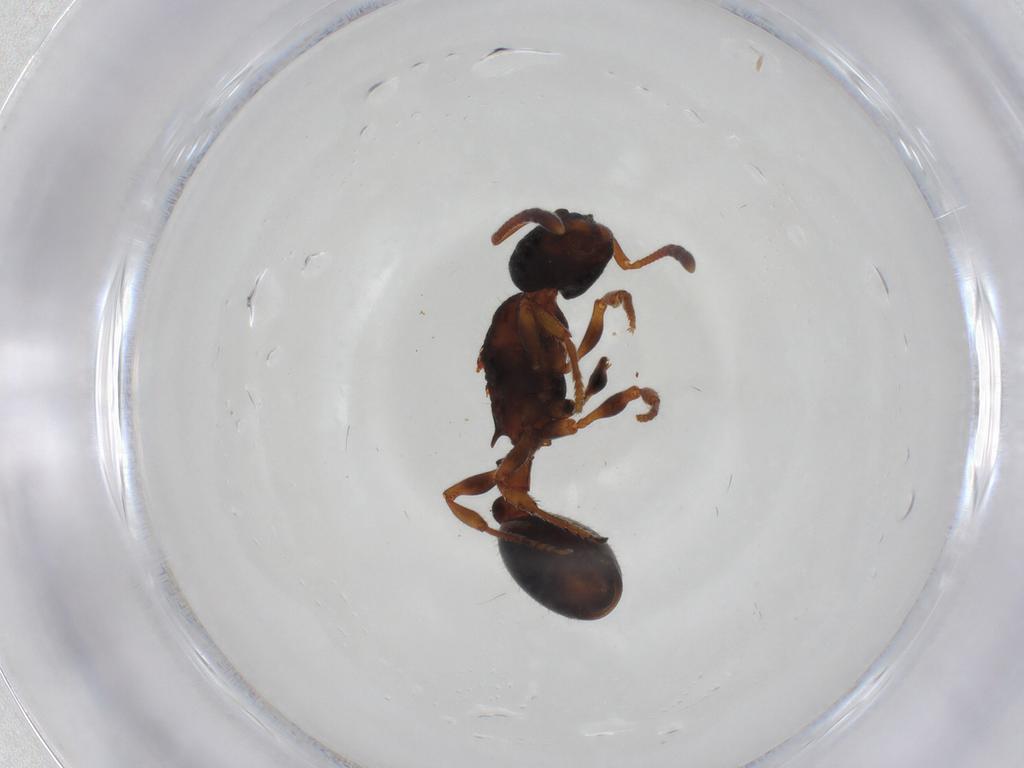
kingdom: Animalia
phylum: Arthropoda
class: Insecta
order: Hymenoptera
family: Formicidae
